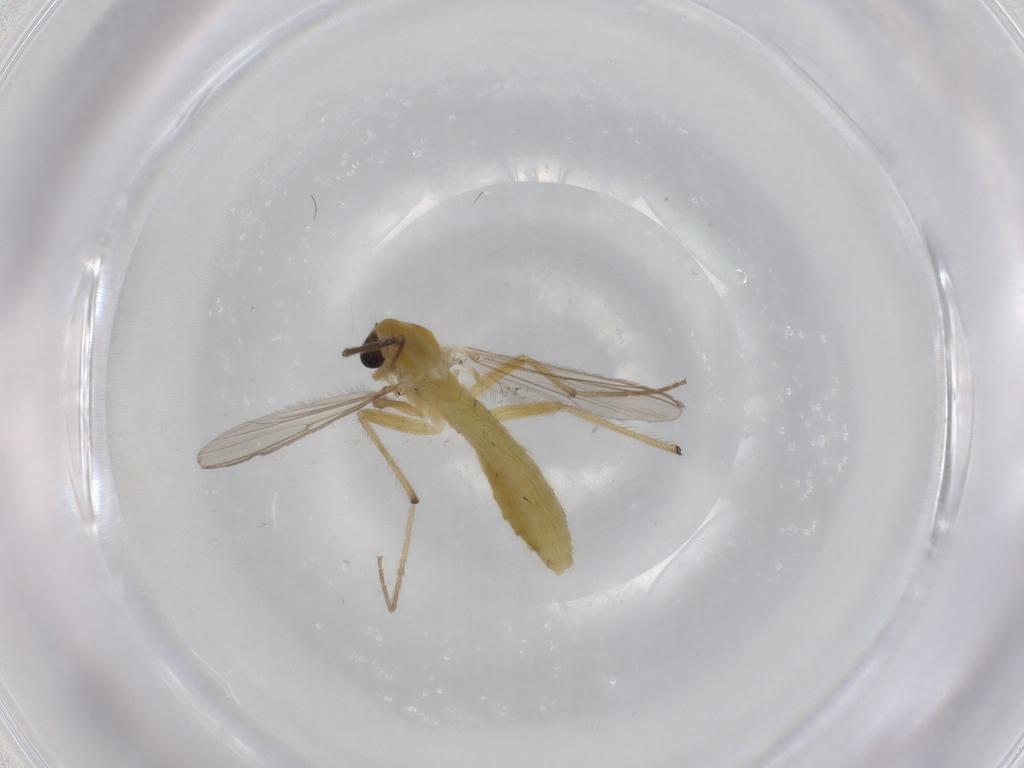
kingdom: Animalia
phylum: Arthropoda
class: Insecta
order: Diptera
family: Chironomidae
